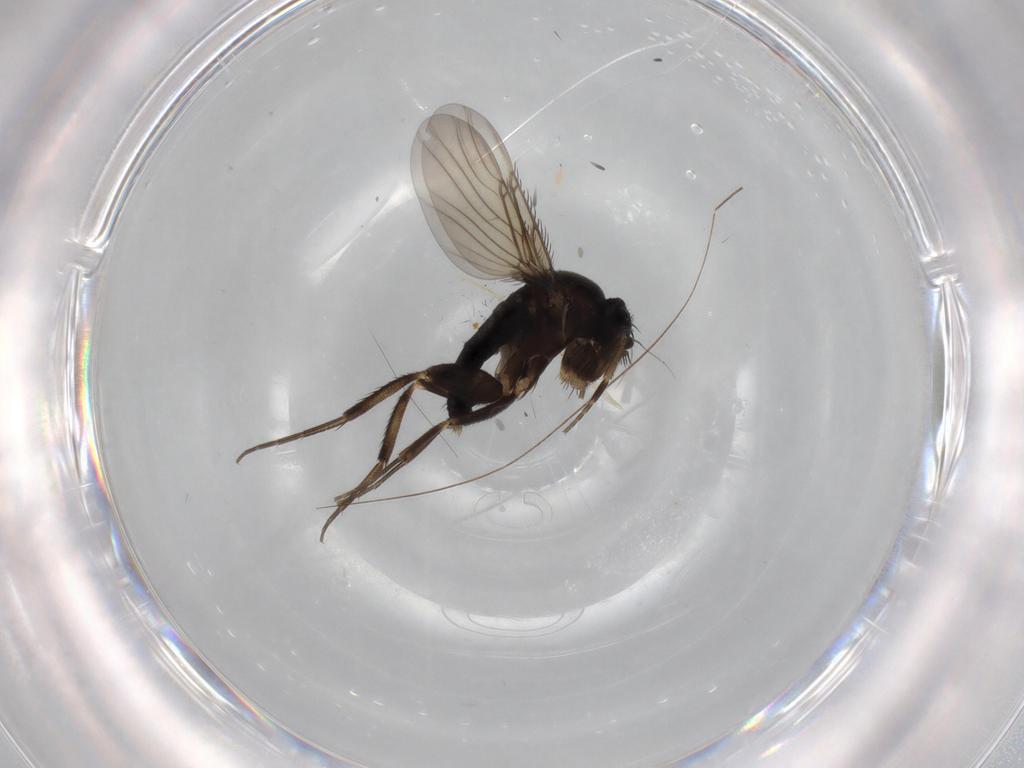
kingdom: Animalia
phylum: Arthropoda
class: Insecta
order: Diptera
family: Phoridae
